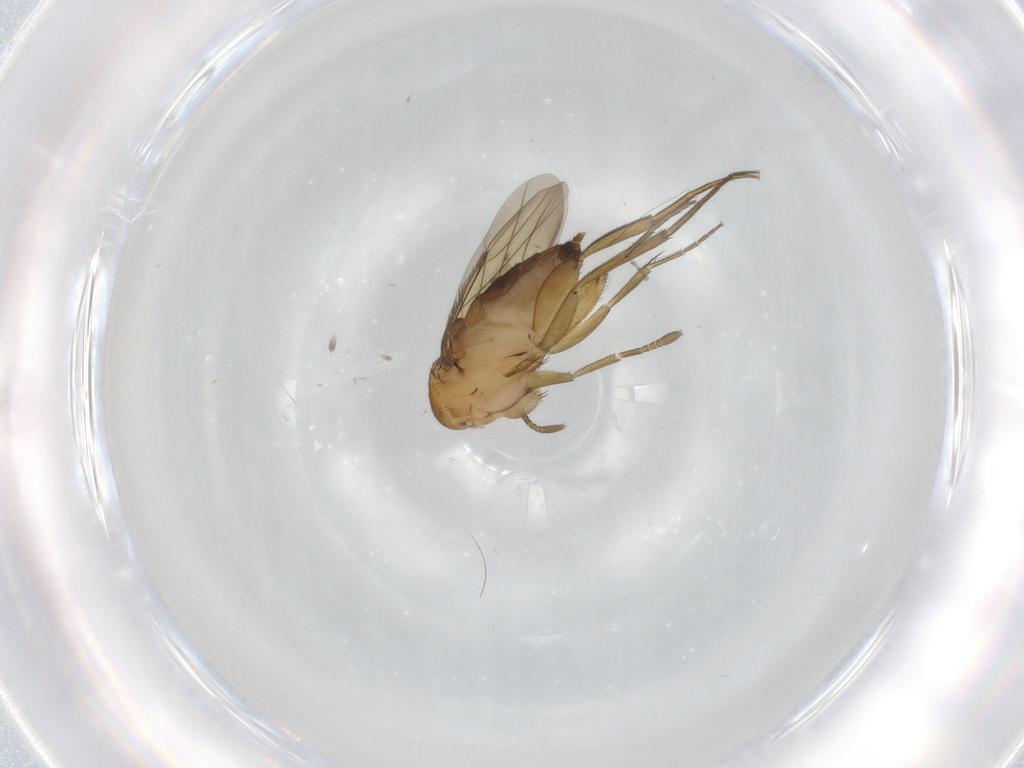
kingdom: Animalia
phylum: Arthropoda
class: Insecta
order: Diptera
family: Phoridae
